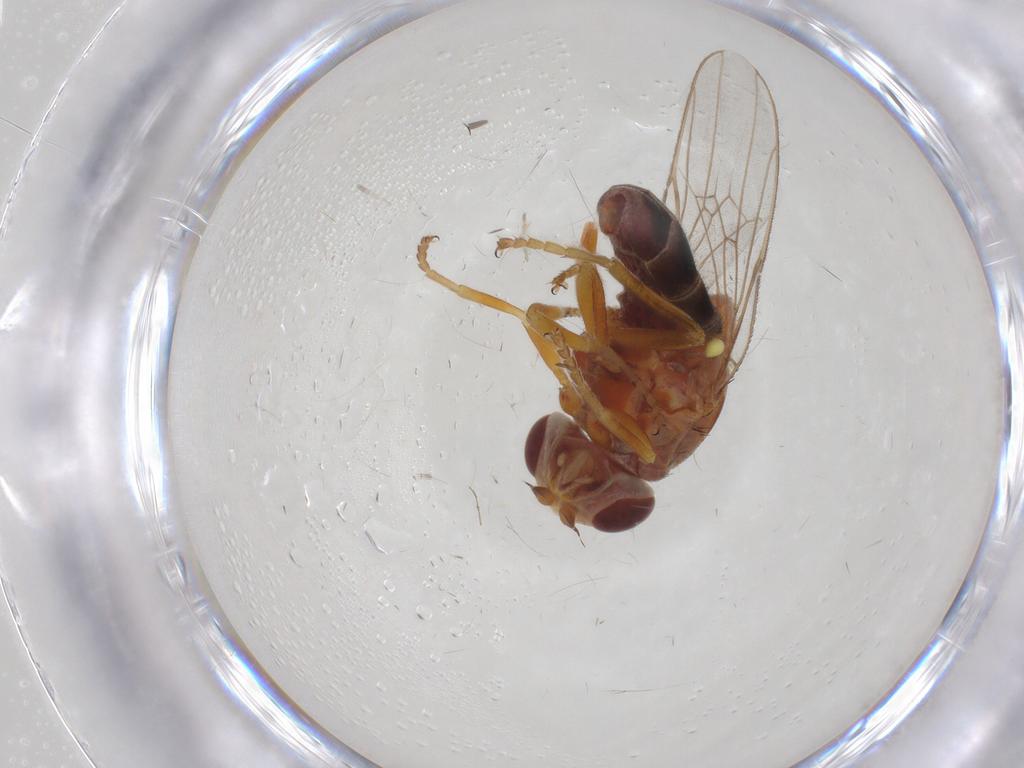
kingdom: Animalia
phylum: Arthropoda
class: Insecta
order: Diptera
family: Chloropidae
